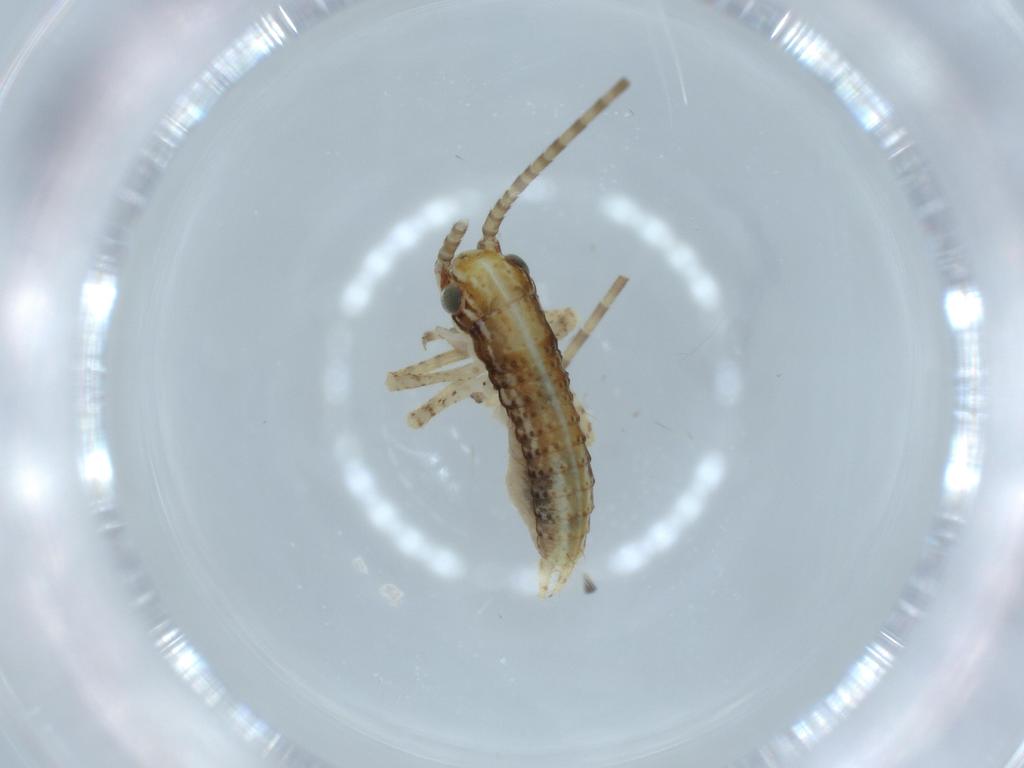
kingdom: Animalia
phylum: Arthropoda
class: Insecta
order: Orthoptera
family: Gryllidae
